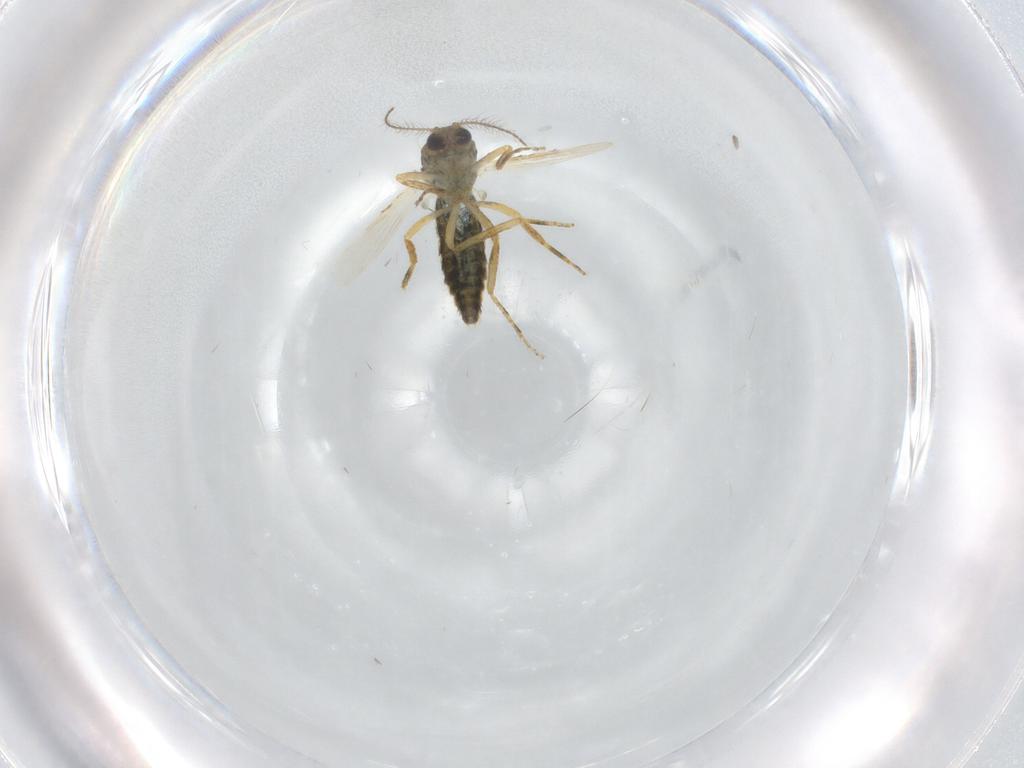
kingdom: Animalia
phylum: Arthropoda
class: Insecta
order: Diptera
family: Ceratopogonidae
